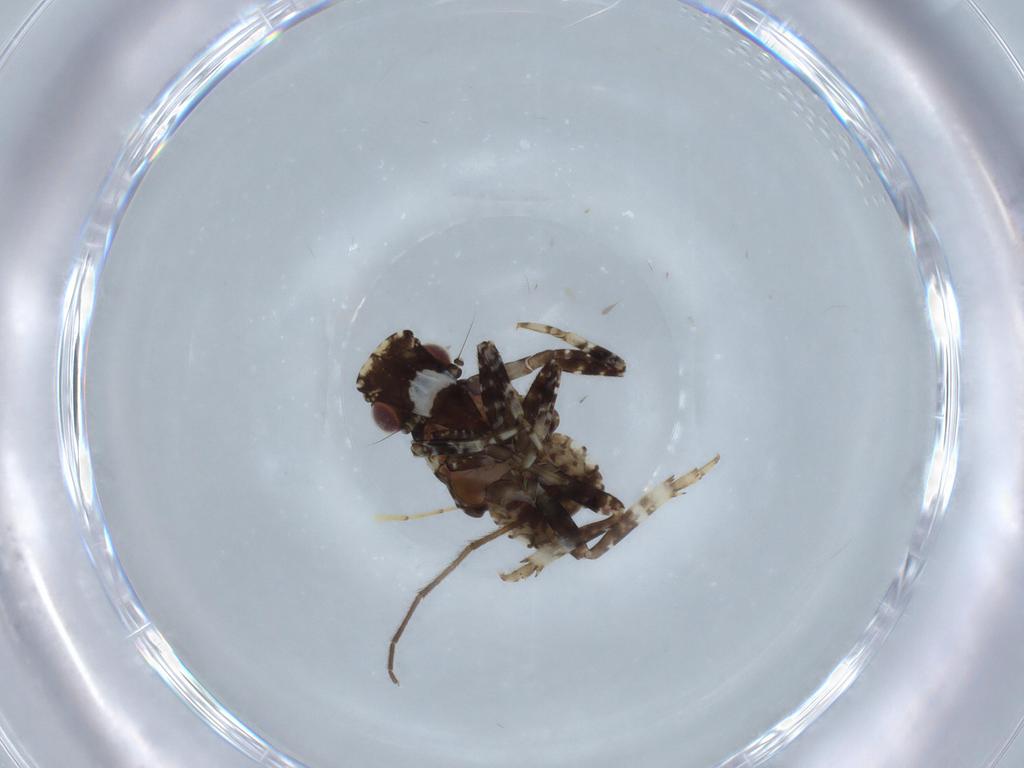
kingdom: Animalia
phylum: Arthropoda
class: Insecta
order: Hemiptera
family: Fulgoridae
